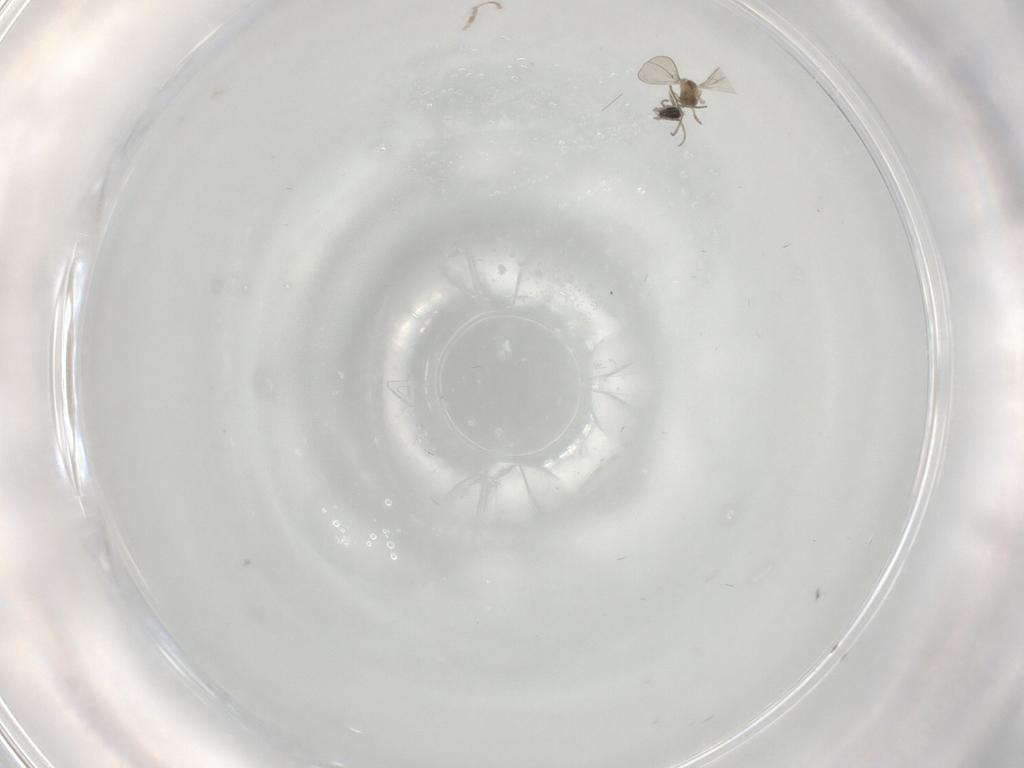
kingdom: Animalia
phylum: Arthropoda
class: Insecta
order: Diptera
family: Cecidomyiidae
